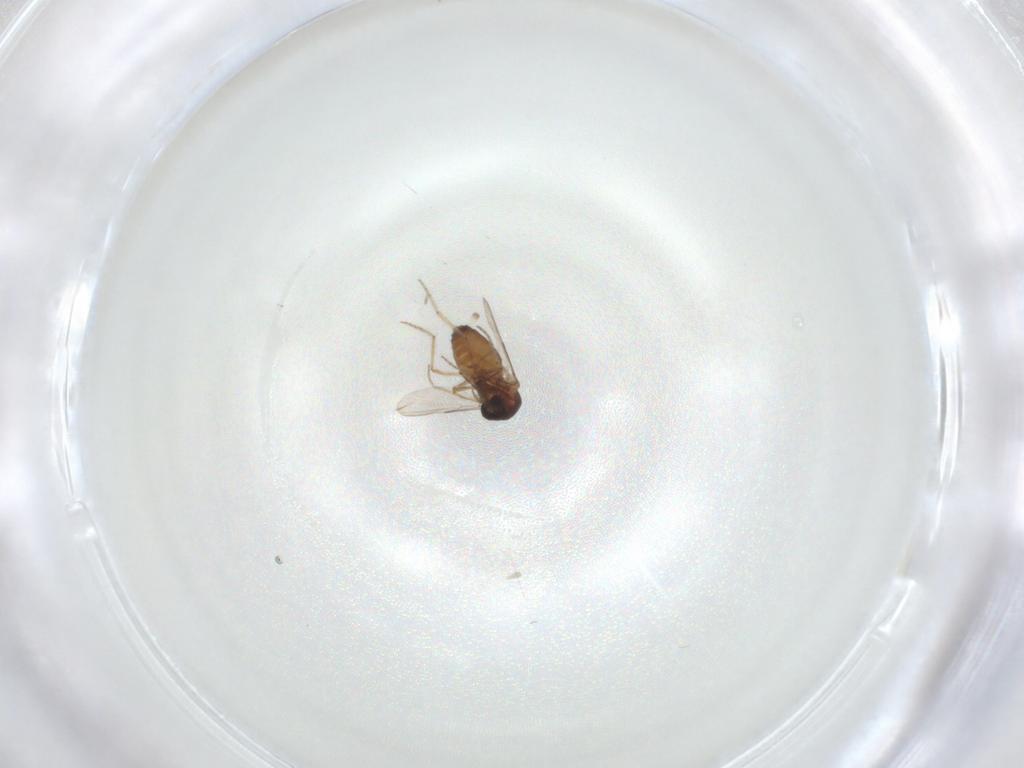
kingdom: Animalia
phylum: Arthropoda
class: Insecta
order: Diptera
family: Ceratopogonidae
